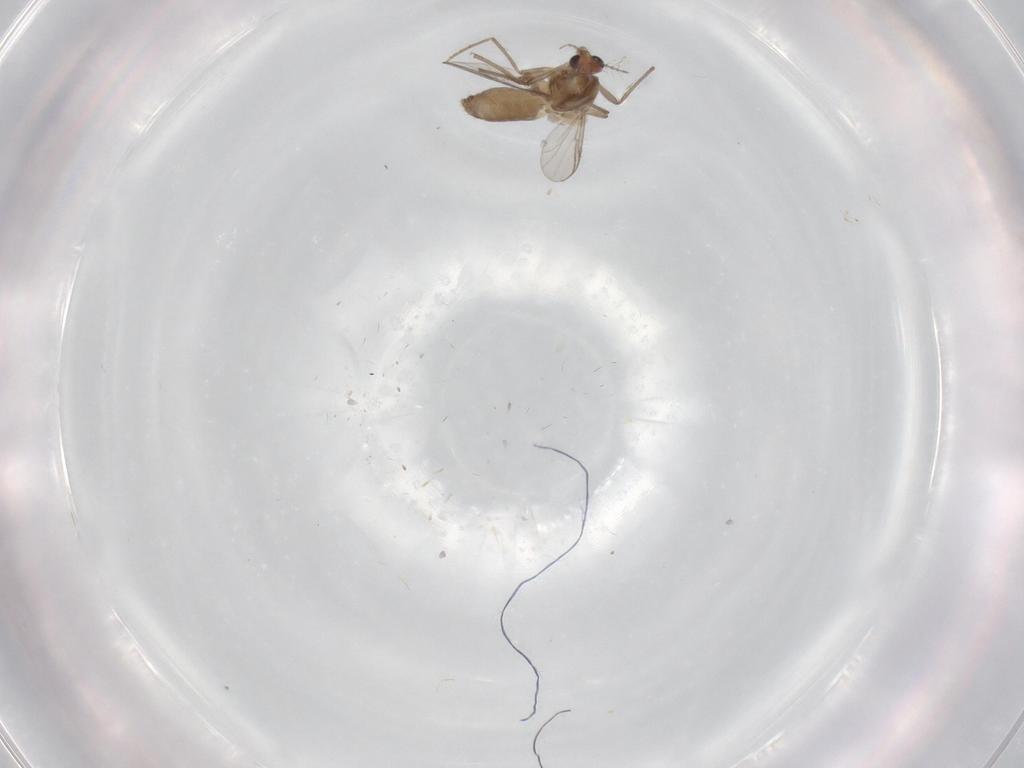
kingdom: Animalia
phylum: Arthropoda
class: Insecta
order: Diptera
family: Chironomidae
